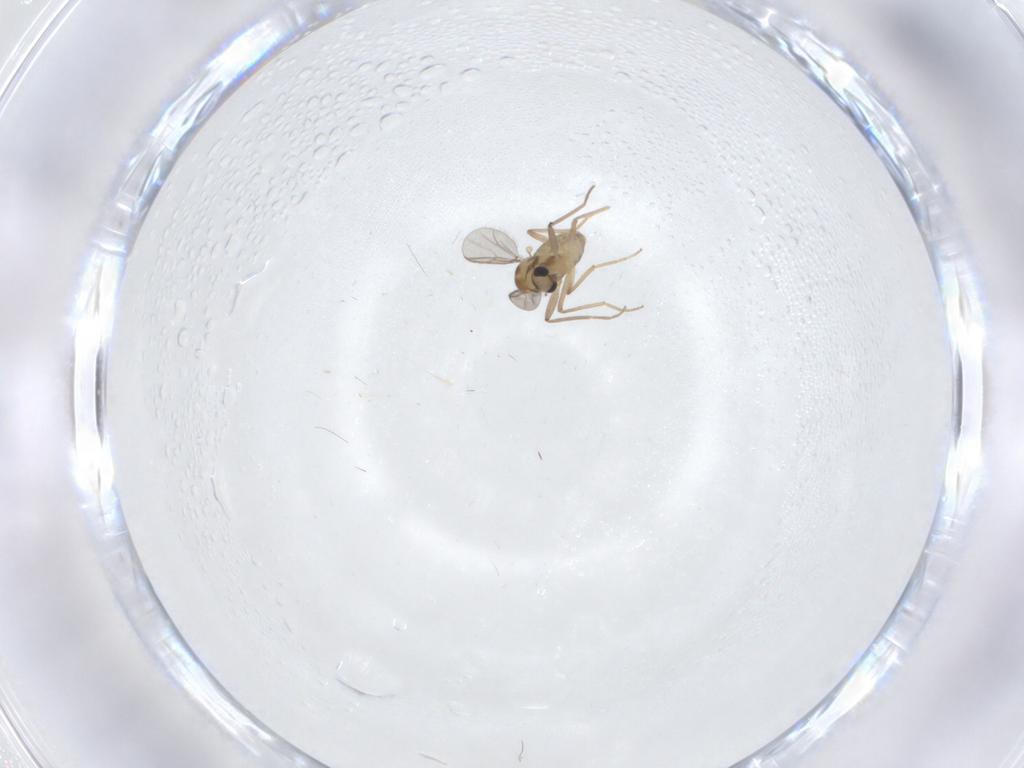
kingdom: Animalia
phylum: Arthropoda
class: Insecta
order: Diptera
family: Chironomidae
